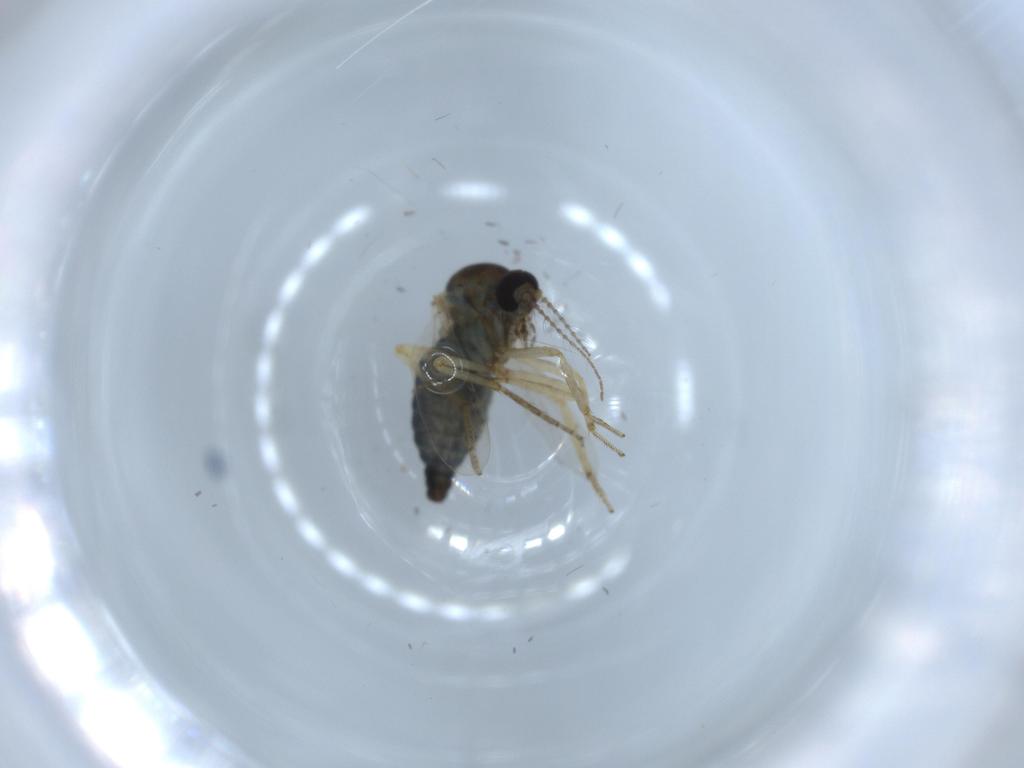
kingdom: Animalia
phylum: Arthropoda
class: Insecta
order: Diptera
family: Ceratopogonidae
